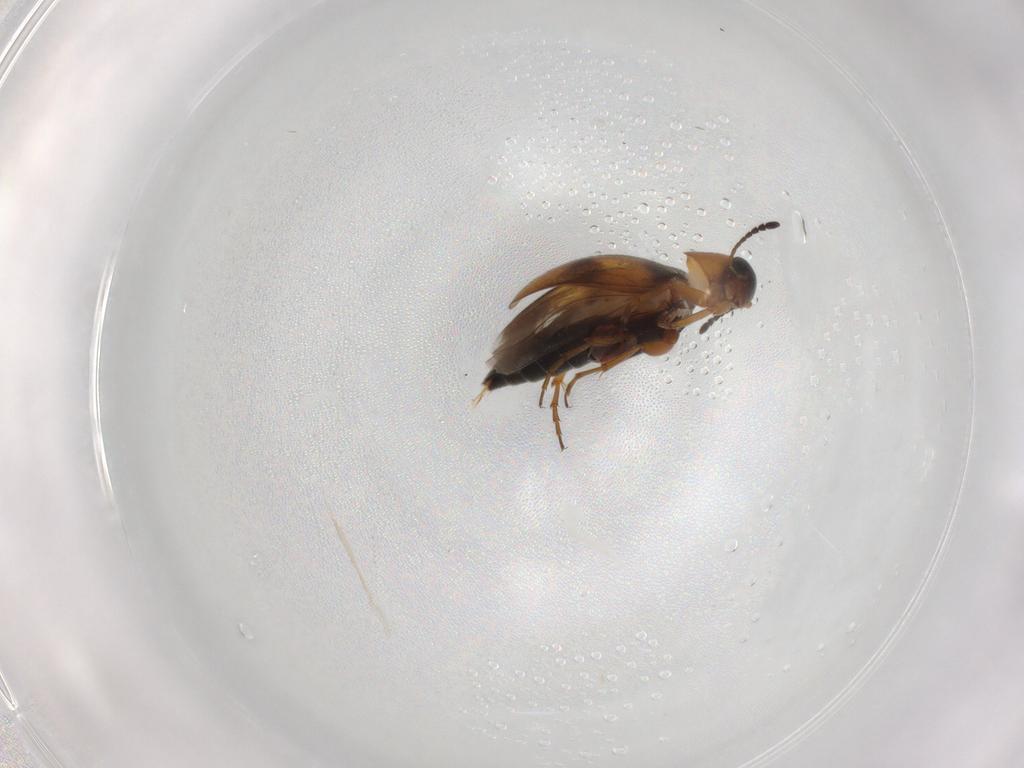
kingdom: Animalia
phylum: Arthropoda
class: Insecta
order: Coleoptera
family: Scraptiidae
